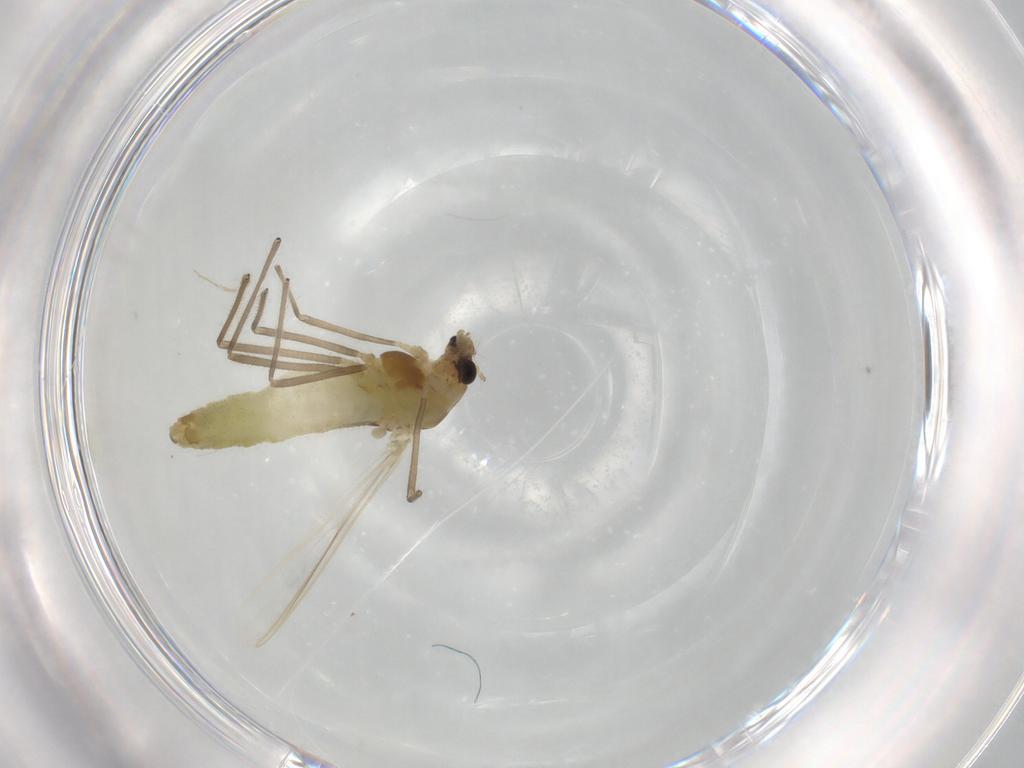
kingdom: Animalia
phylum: Arthropoda
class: Insecta
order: Diptera
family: Chironomidae
